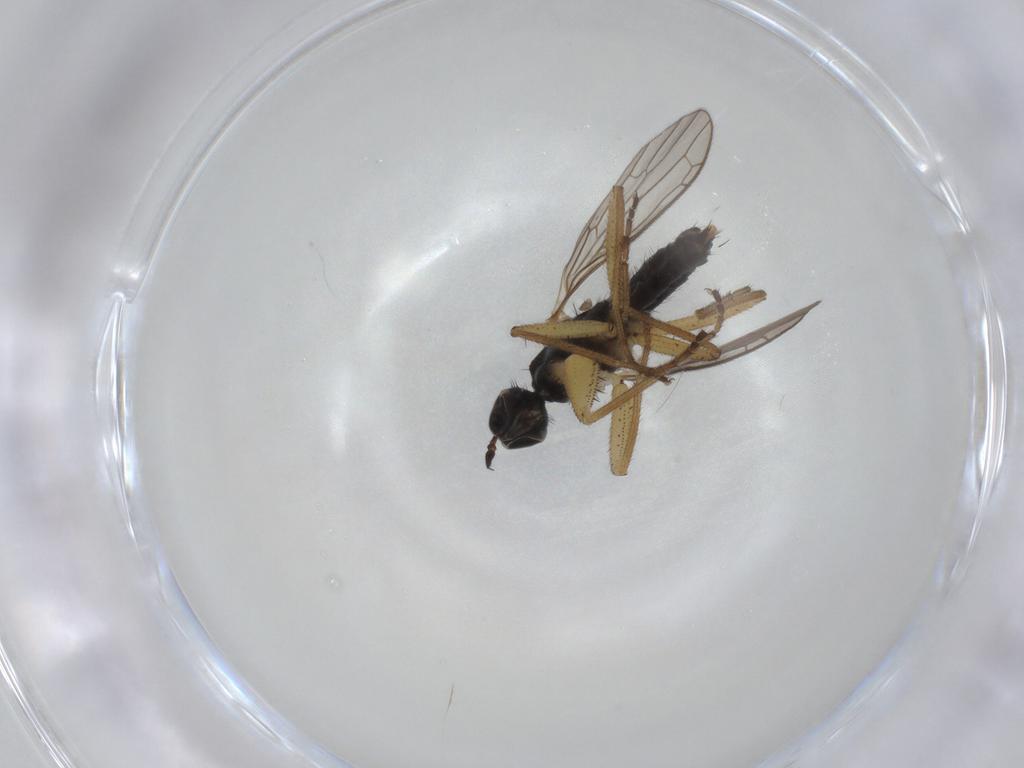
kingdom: Animalia
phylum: Arthropoda
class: Insecta
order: Diptera
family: Empididae
